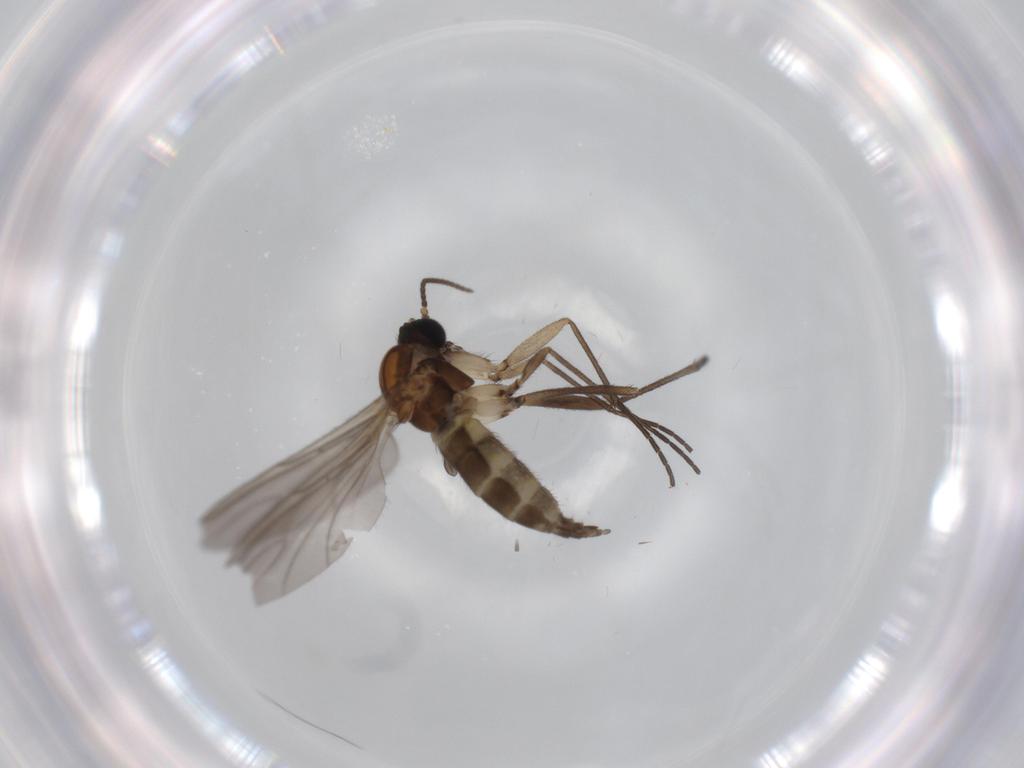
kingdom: Animalia
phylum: Arthropoda
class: Insecta
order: Diptera
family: Sciaridae
